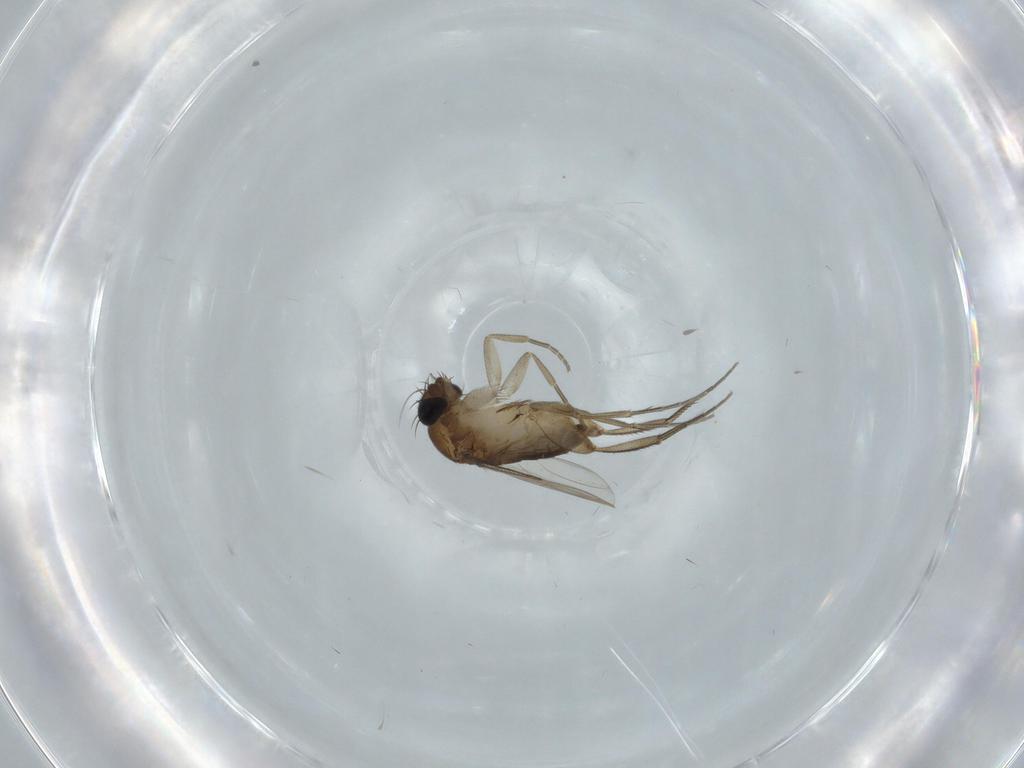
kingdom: Animalia
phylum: Arthropoda
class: Insecta
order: Diptera
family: Phoridae
